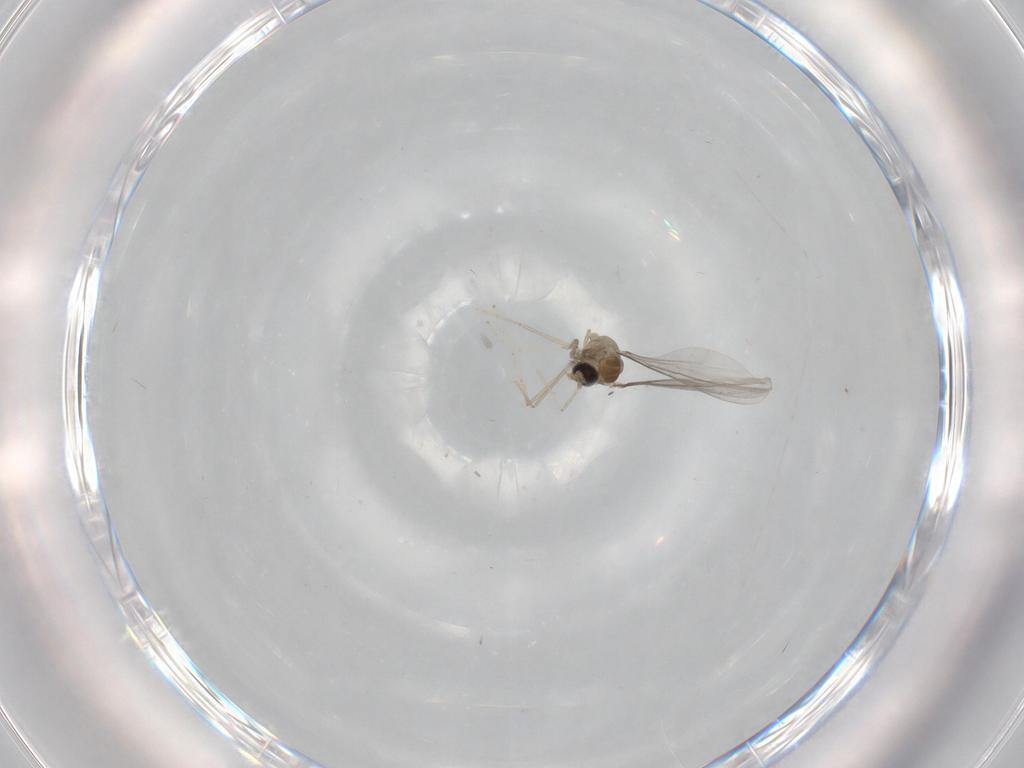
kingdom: Animalia
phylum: Arthropoda
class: Insecta
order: Diptera
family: Cecidomyiidae
